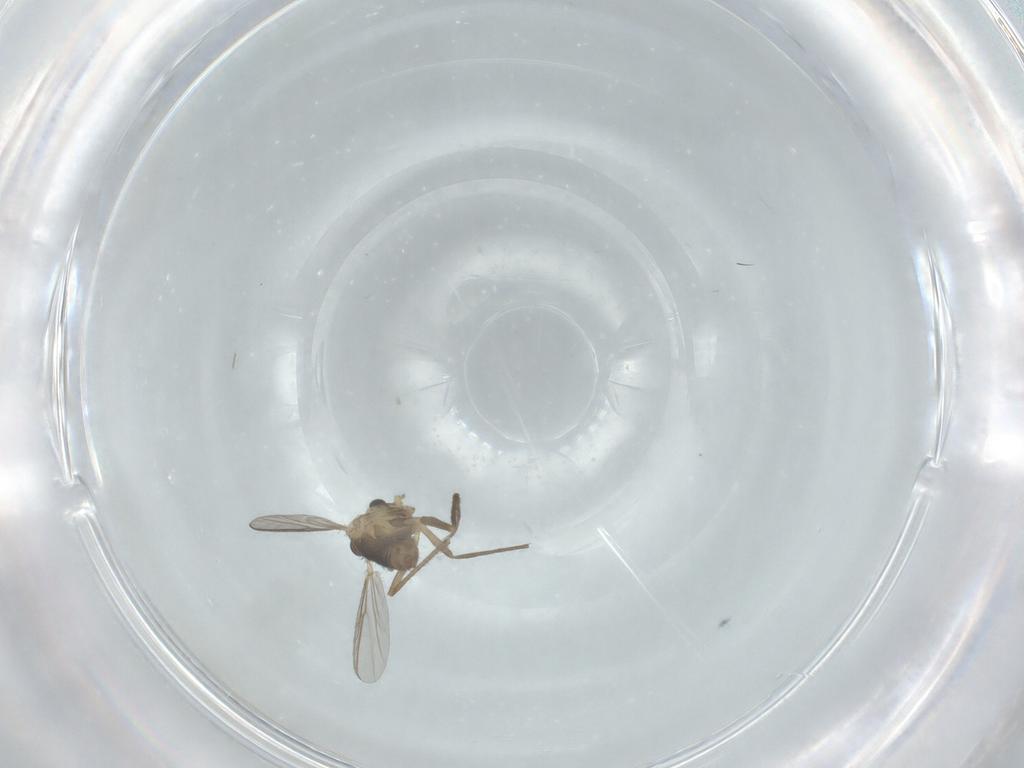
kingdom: Animalia
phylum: Arthropoda
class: Insecta
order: Diptera
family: Chironomidae
